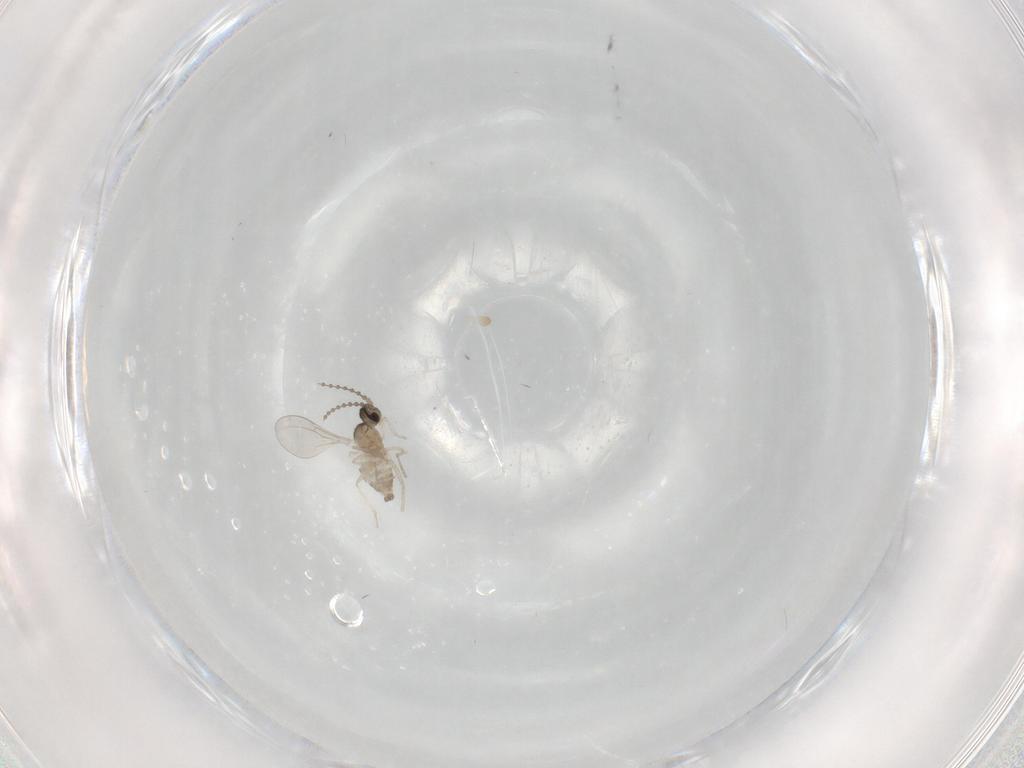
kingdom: Animalia
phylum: Arthropoda
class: Insecta
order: Diptera
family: Cecidomyiidae
